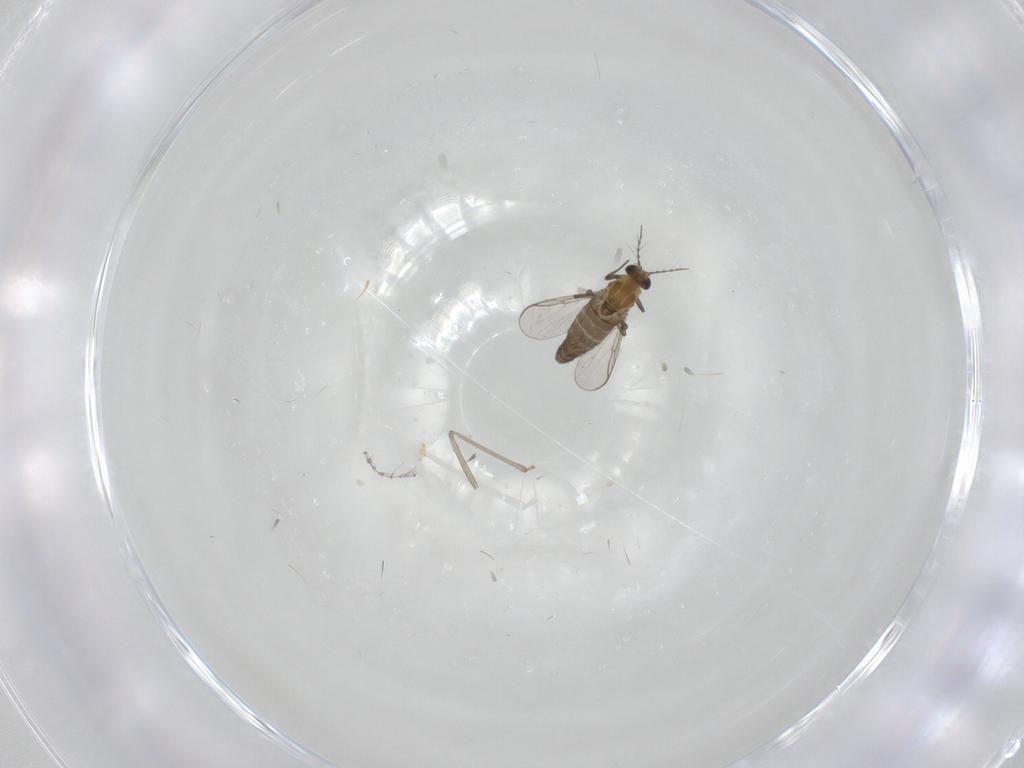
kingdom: Animalia
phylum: Arthropoda
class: Insecta
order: Diptera
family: Chironomidae
